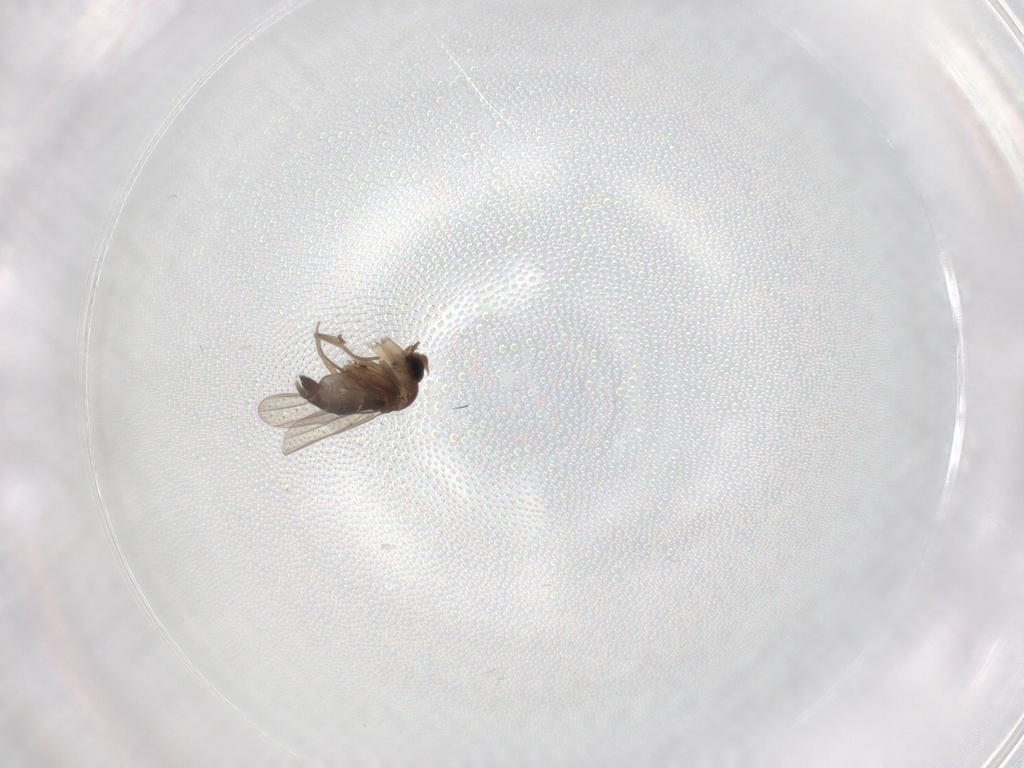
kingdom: Animalia
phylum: Arthropoda
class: Insecta
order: Diptera
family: Phoridae
